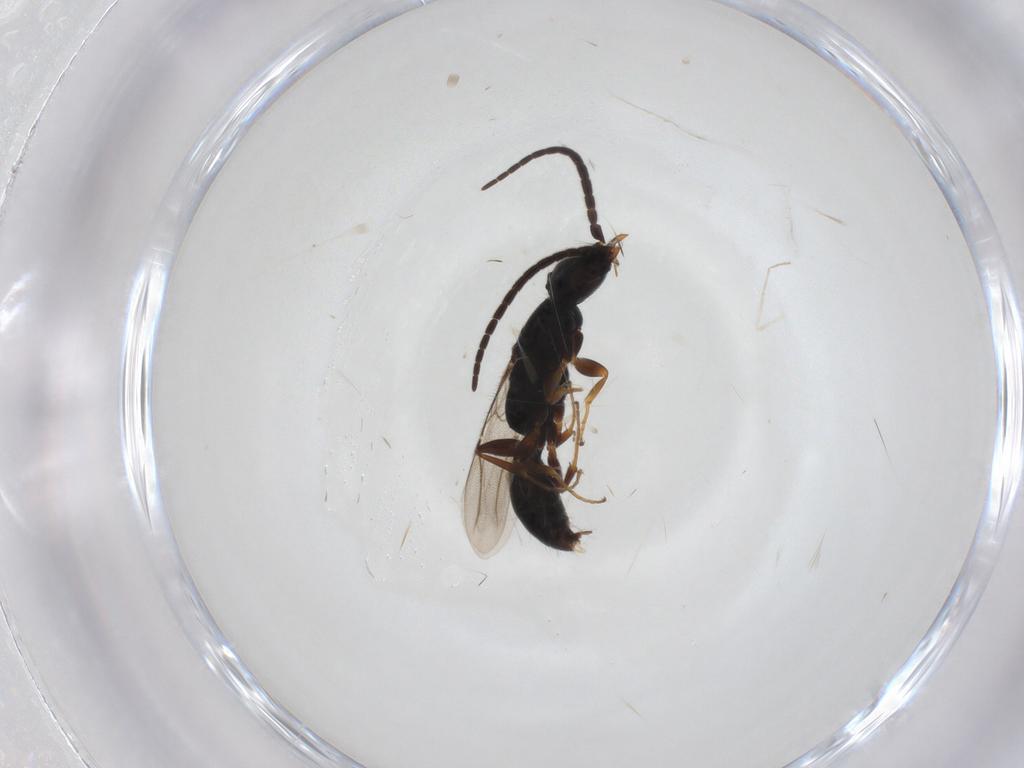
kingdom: Animalia
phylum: Arthropoda
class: Insecta
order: Hymenoptera
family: Bethylidae
